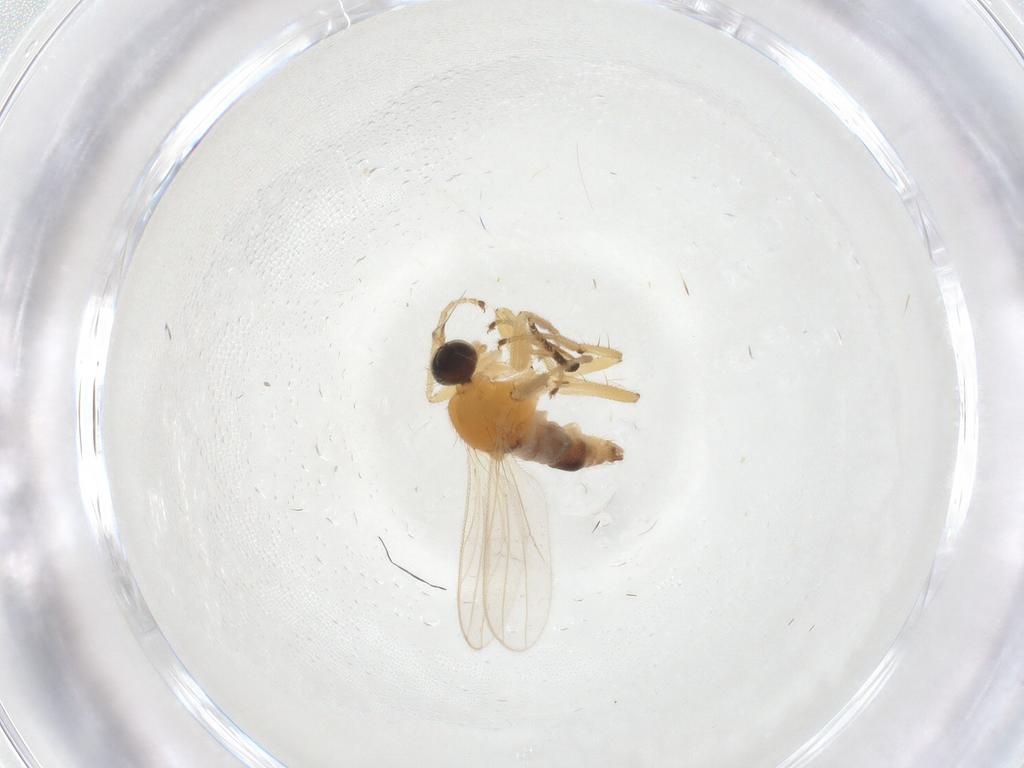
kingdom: Animalia
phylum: Arthropoda
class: Insecta
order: Diptera
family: Hybotidae
